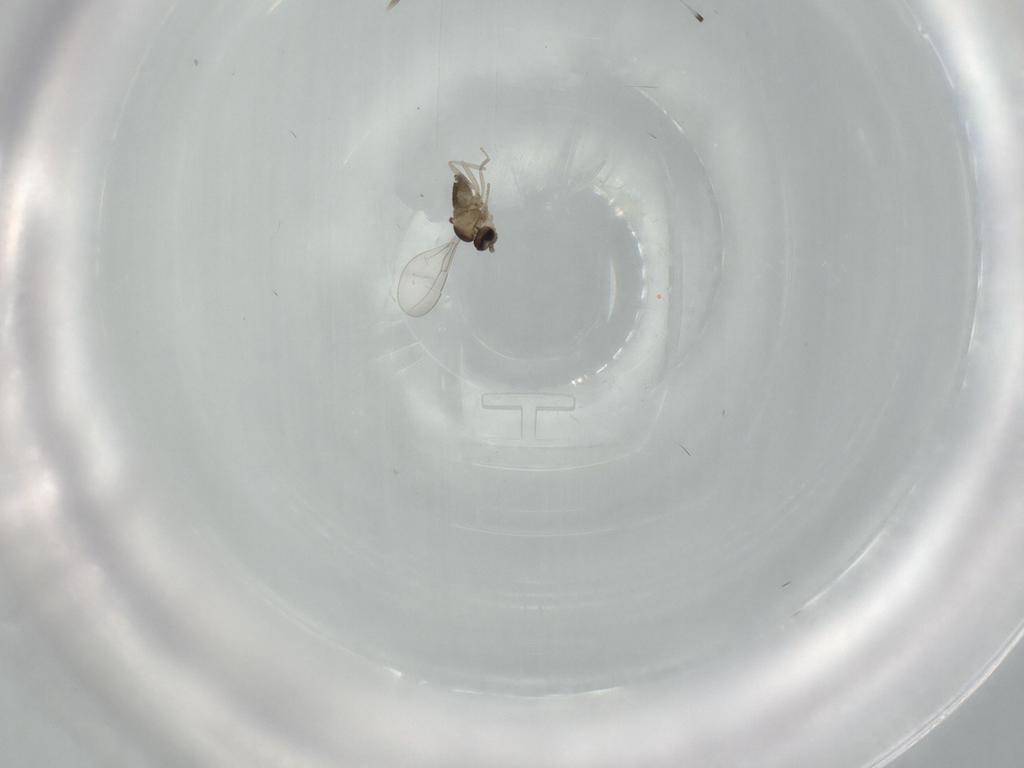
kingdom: Animalia
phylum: Arthropoda
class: Insecta
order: Diptera
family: Cecidomyiidae
